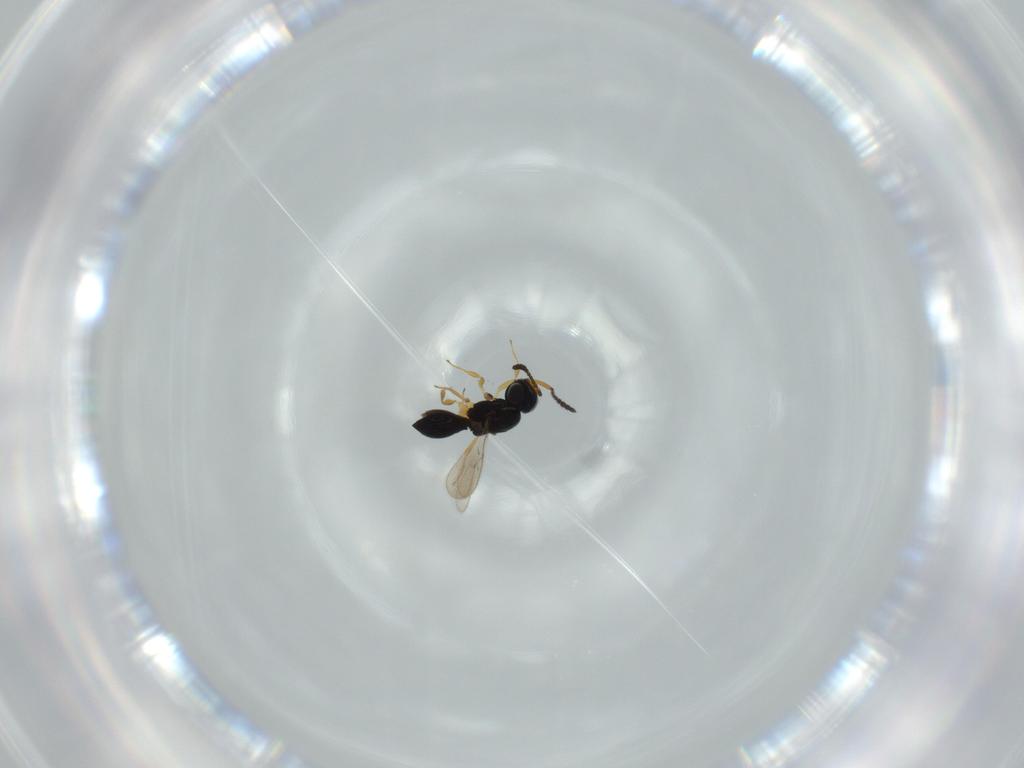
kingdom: Animalia
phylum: Arthropoda
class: Insecta
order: Hymenoptera
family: Scelionidae
